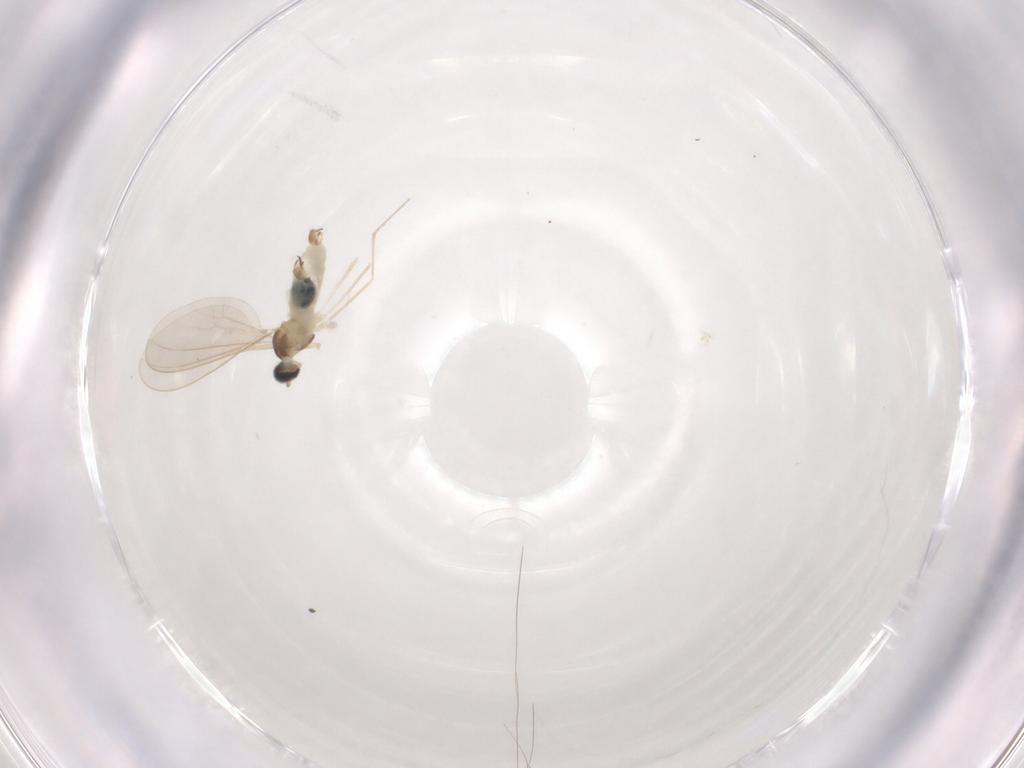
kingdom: Animalia
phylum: Arthropoda
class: Insecta
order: Diptera
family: Cecidomyiidae
